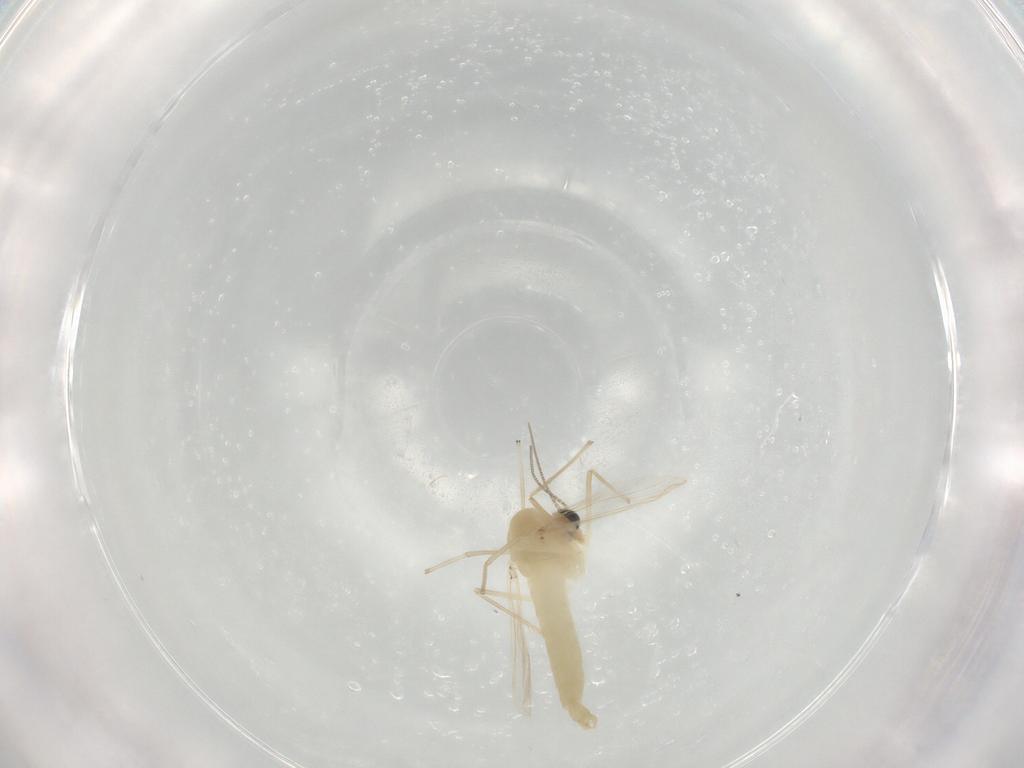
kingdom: Animalia
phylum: Arthropoda
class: Insecta
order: Diptera
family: Chironomidae
